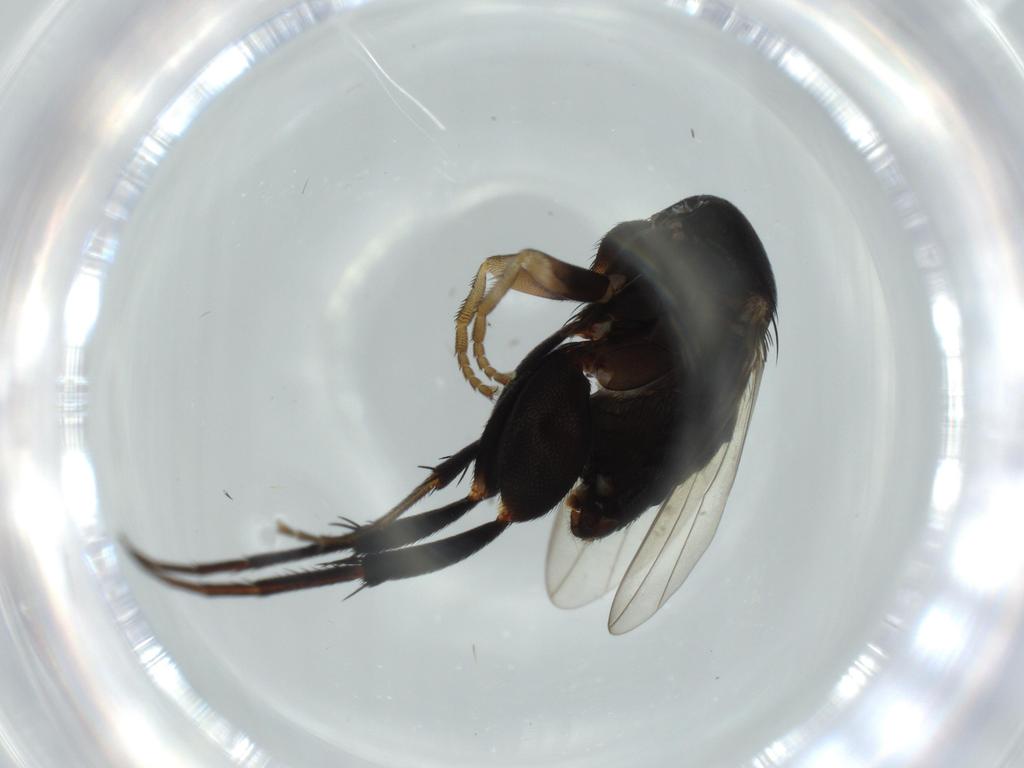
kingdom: Animalia
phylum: Arthropoda
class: Insecta
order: Diptera
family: Phoridae
